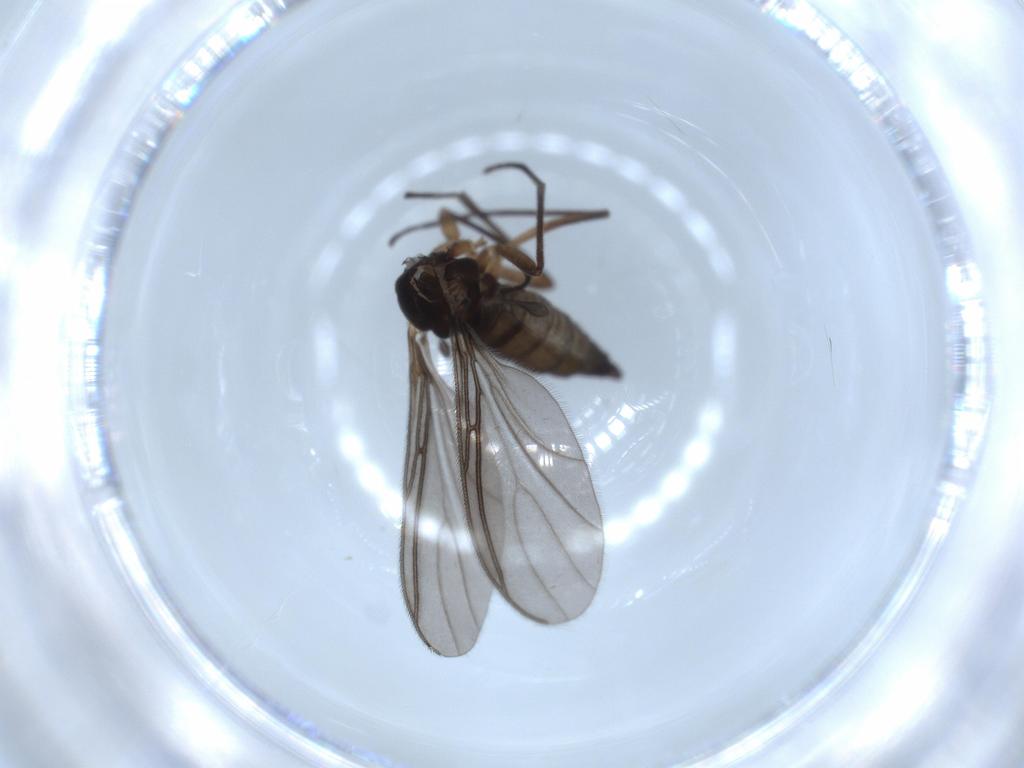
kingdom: Animalia
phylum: Arthropoda
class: Insecta
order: Diptera
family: Sciaridae
